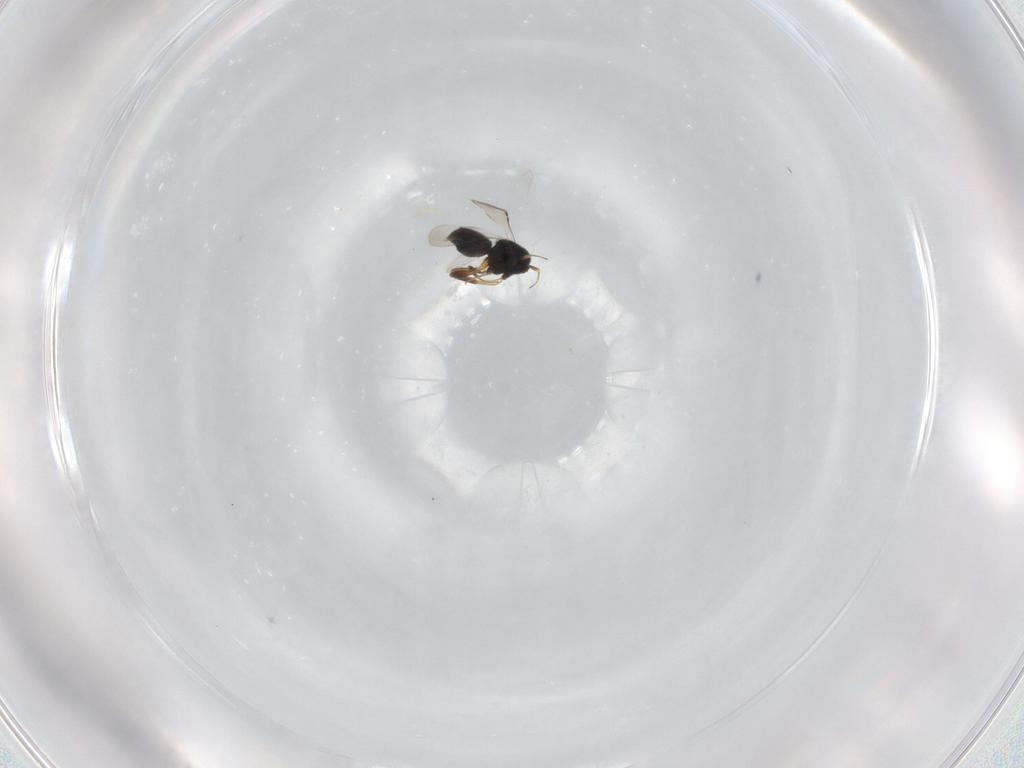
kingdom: Animalia
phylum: Arthropoda
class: Insecta
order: Hymenoptera
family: Ceraphronidae
